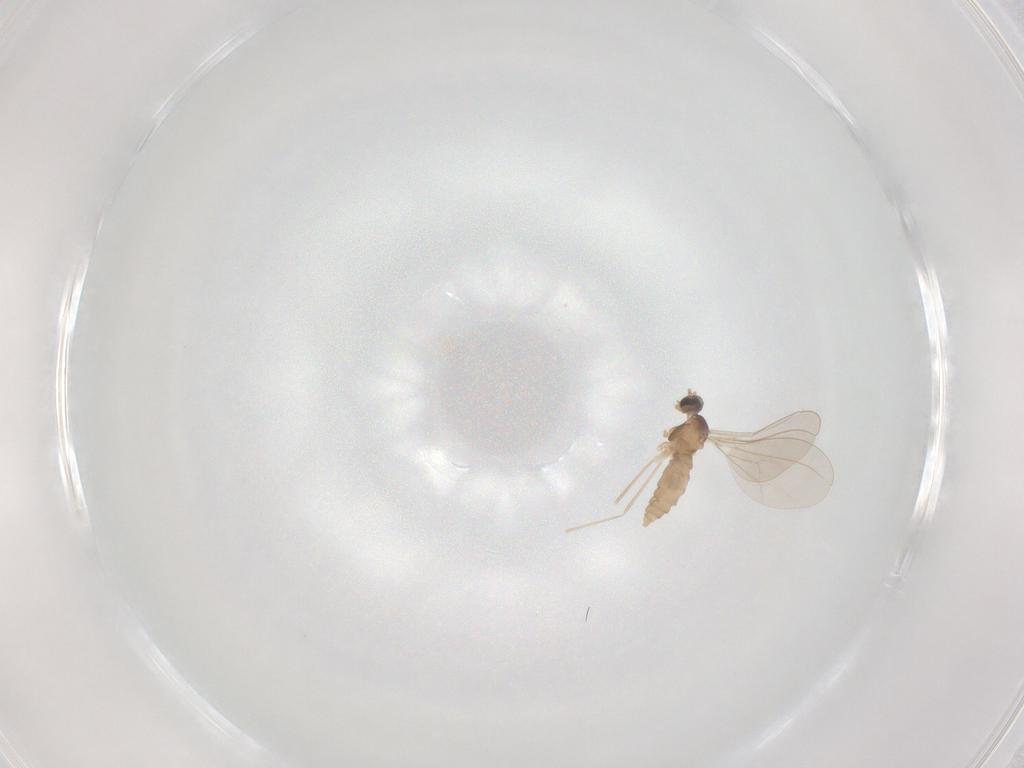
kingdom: Animalia
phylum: Arthropoda
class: Insecta
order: Diptera
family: Cecidomyiidae
